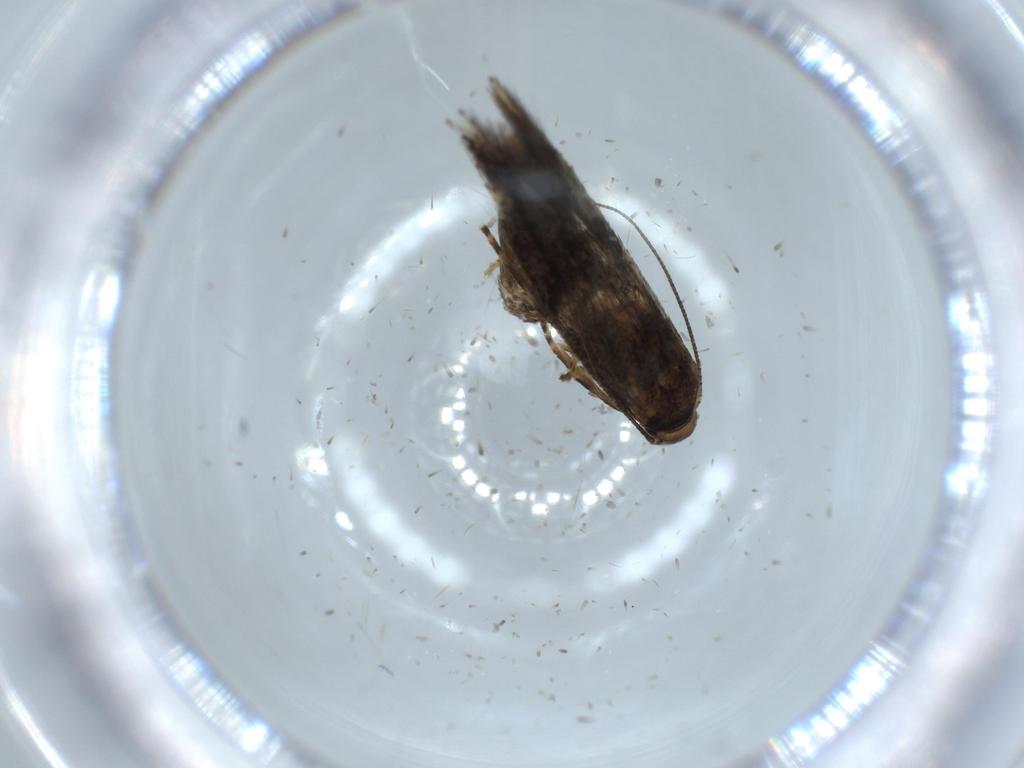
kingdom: Animalia
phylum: Arthropoda
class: Insecta
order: Lepidoptera
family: Elachistidae
